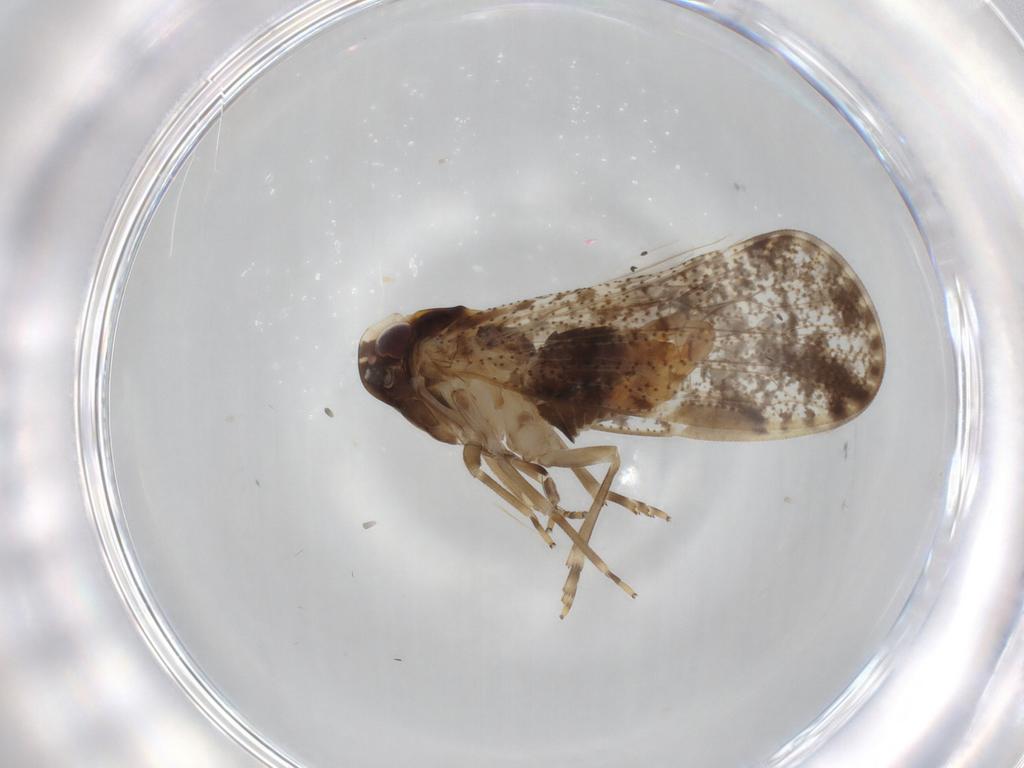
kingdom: Animalia
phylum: Arthropoda
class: Insecta
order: Hemiptera
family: Cixiidae
